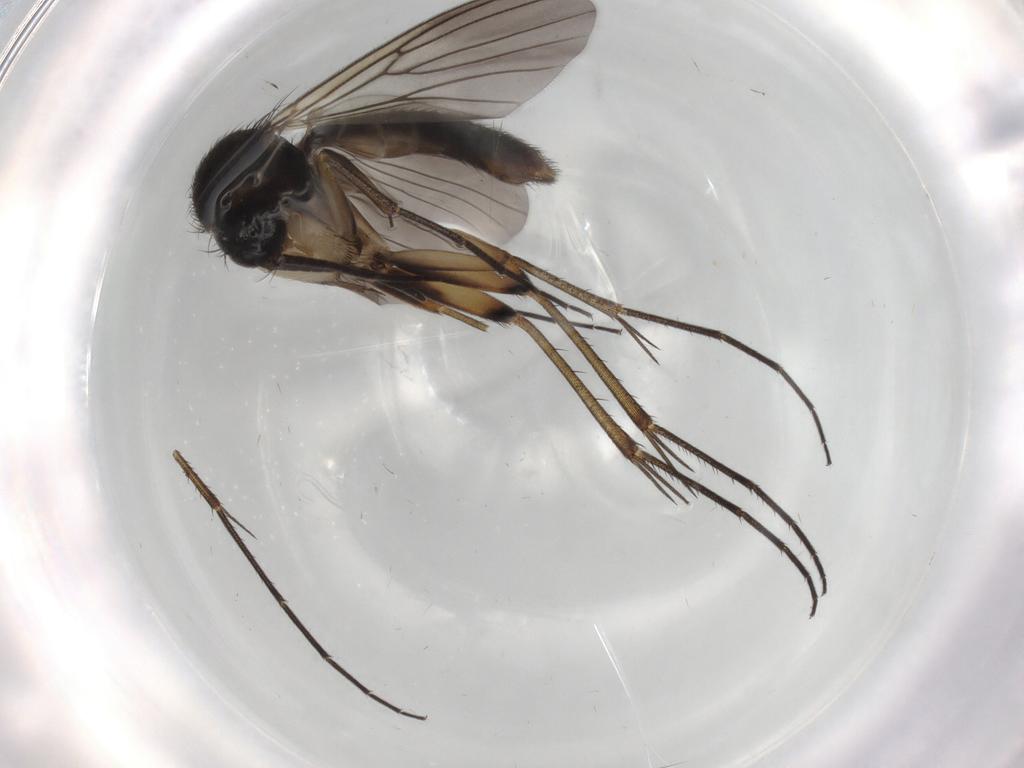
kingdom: Animalia
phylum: Arthropoda
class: Insecta
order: Diptera
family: Mycetophilidae
